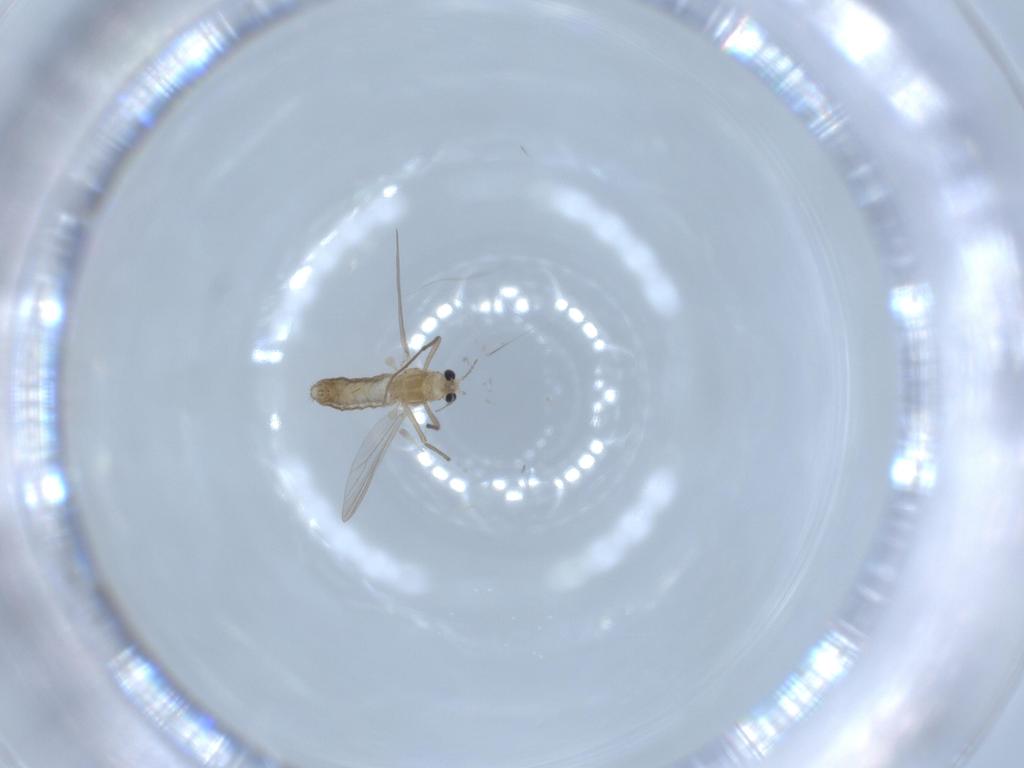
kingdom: Animalia
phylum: Arthropoda
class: Insecta
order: Diptera
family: Chironomidae
